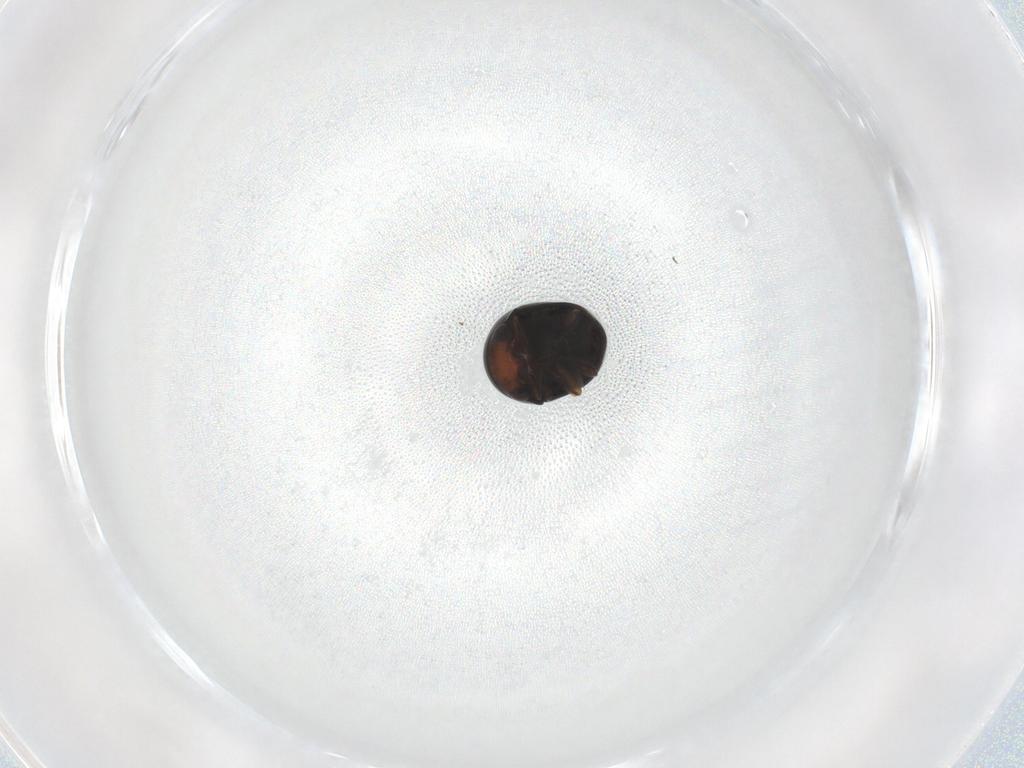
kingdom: Animalia
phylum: Arthropoda
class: Insecta
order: Coleoptera
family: Cybocephalidae
